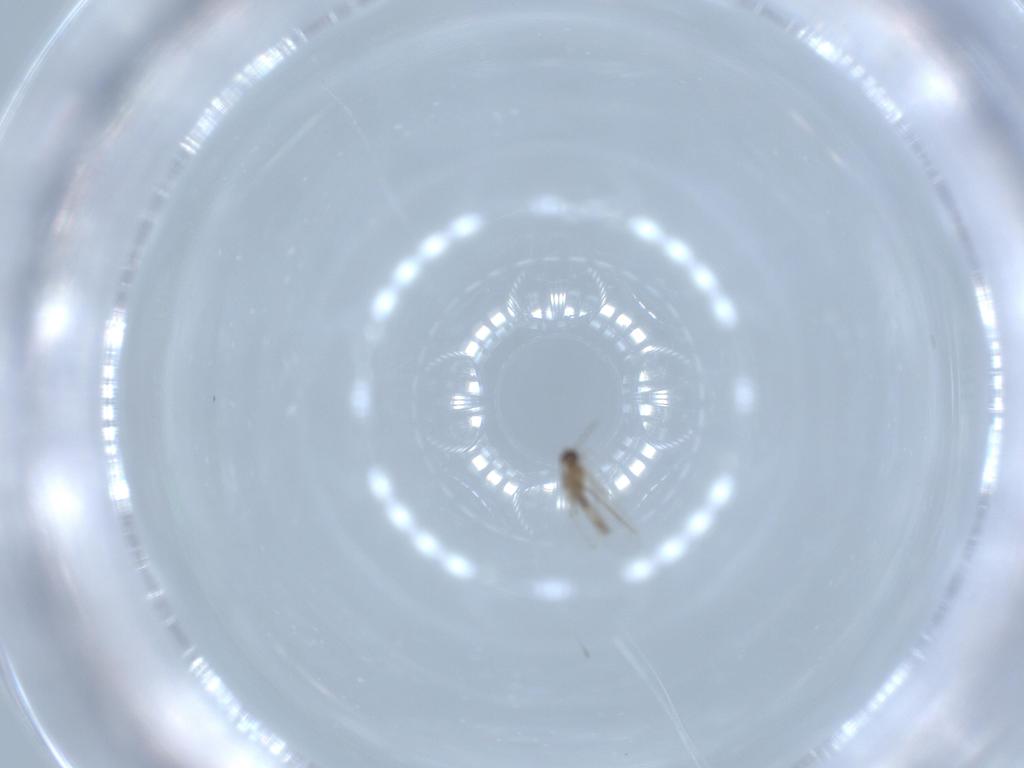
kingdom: Animalia
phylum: Arthropoda
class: Insecta
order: Diptera
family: Cecidomyiidae
